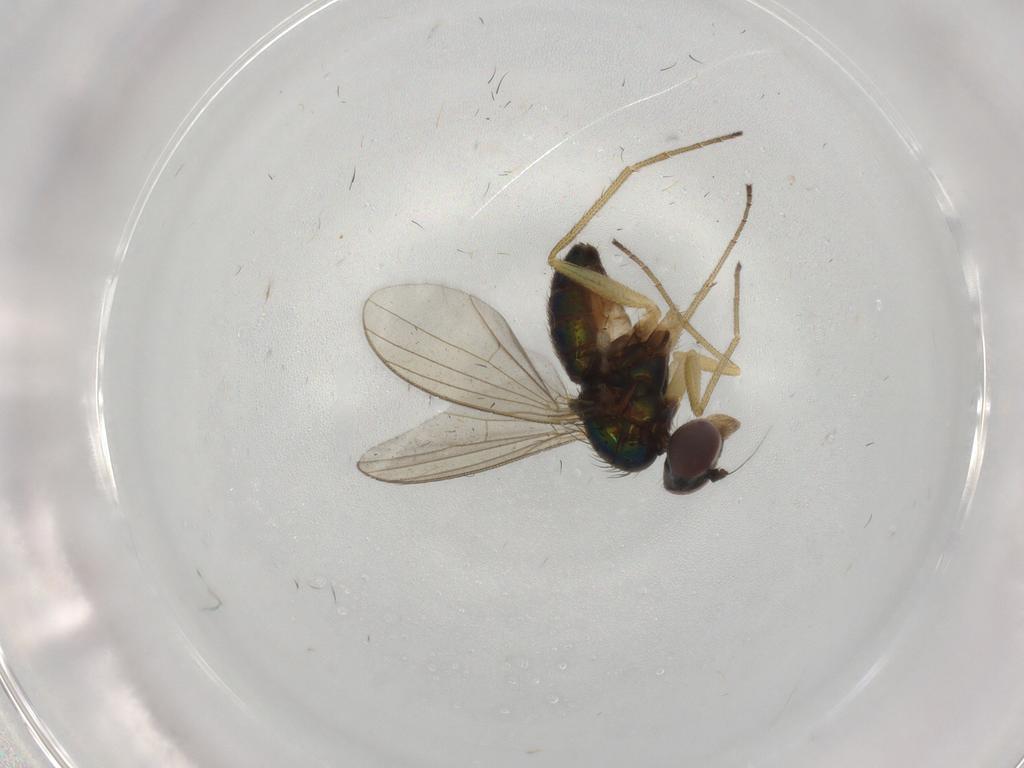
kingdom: Animalia
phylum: Arthropoda
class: Insecta
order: Diptera
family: Dolichopodidae
